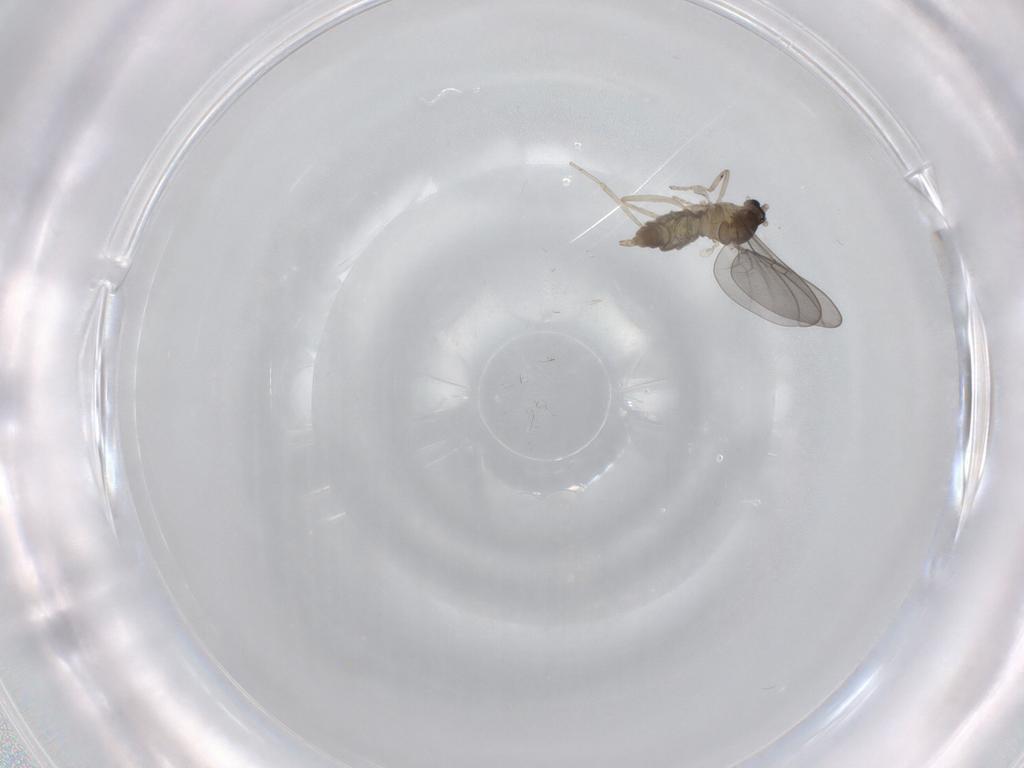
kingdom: Animalia
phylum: Arthropoda
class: Insecta
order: Diptera
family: Cecidomyiidae
